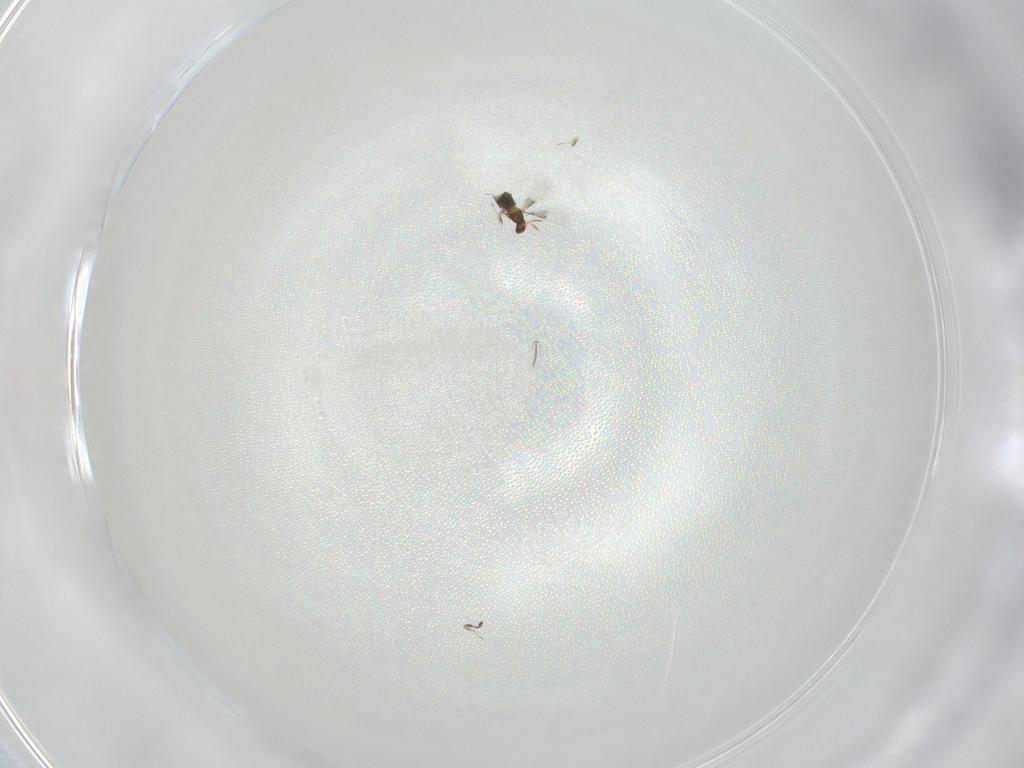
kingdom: Animalia
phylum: Arthropoda
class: Insecta
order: Hymenoptera
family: Trichogrammatidae
